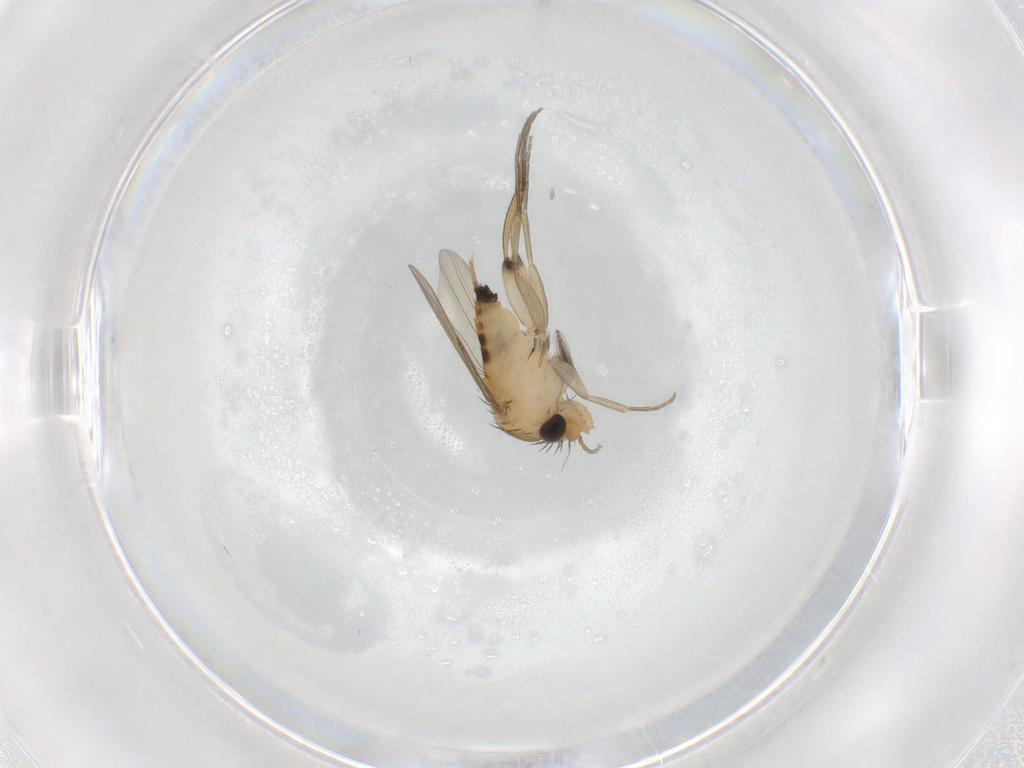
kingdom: Animalia
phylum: Arthropoda
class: Insecta
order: Diptera
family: Phoridae
